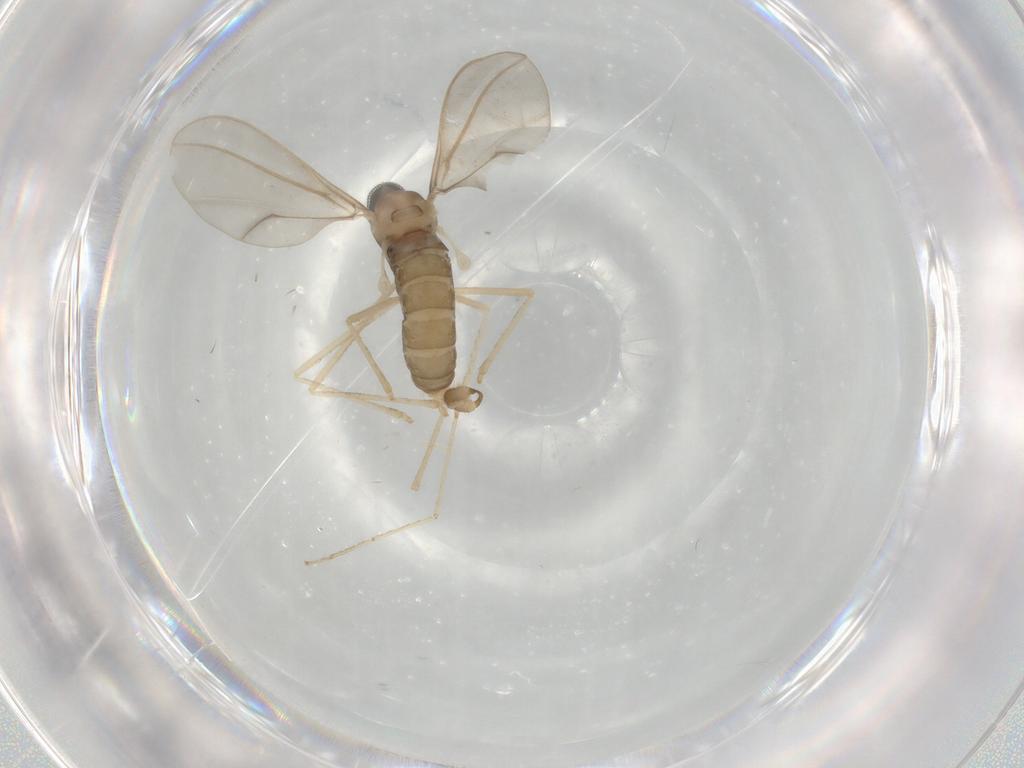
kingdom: Animalia
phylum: Arthropoda
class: Insecta
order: Diptera
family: Cecidomyiidae
